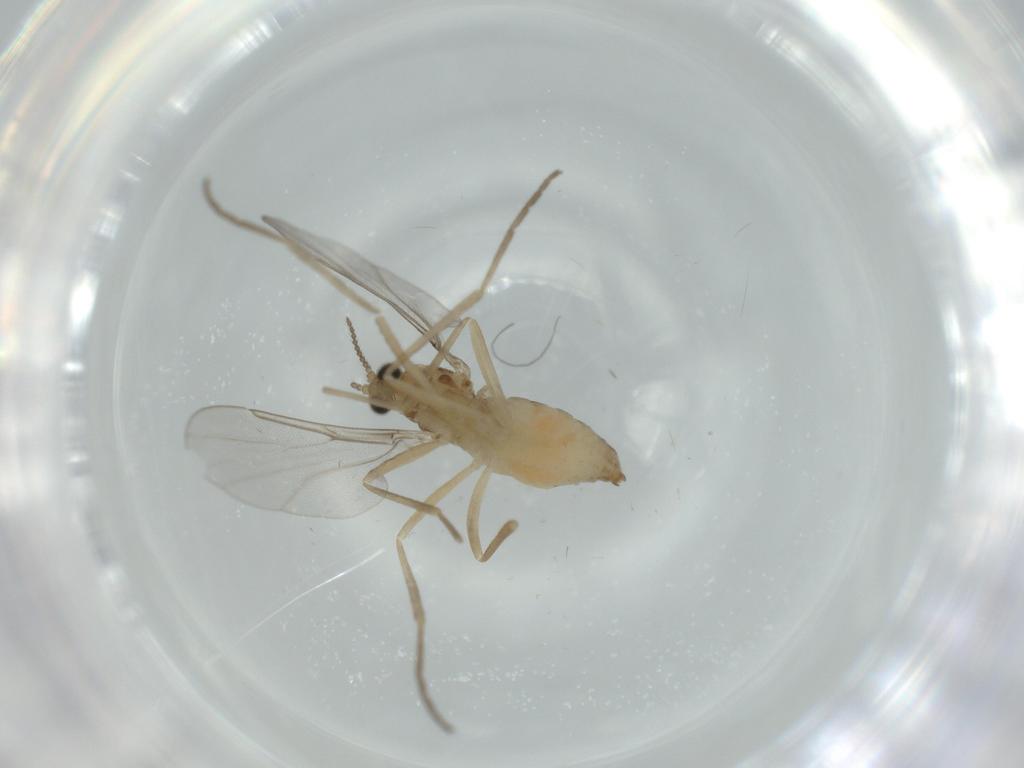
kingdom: Animalia
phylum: Arthropoda
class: Insecta
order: Diptera
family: Cecidomyiidae
